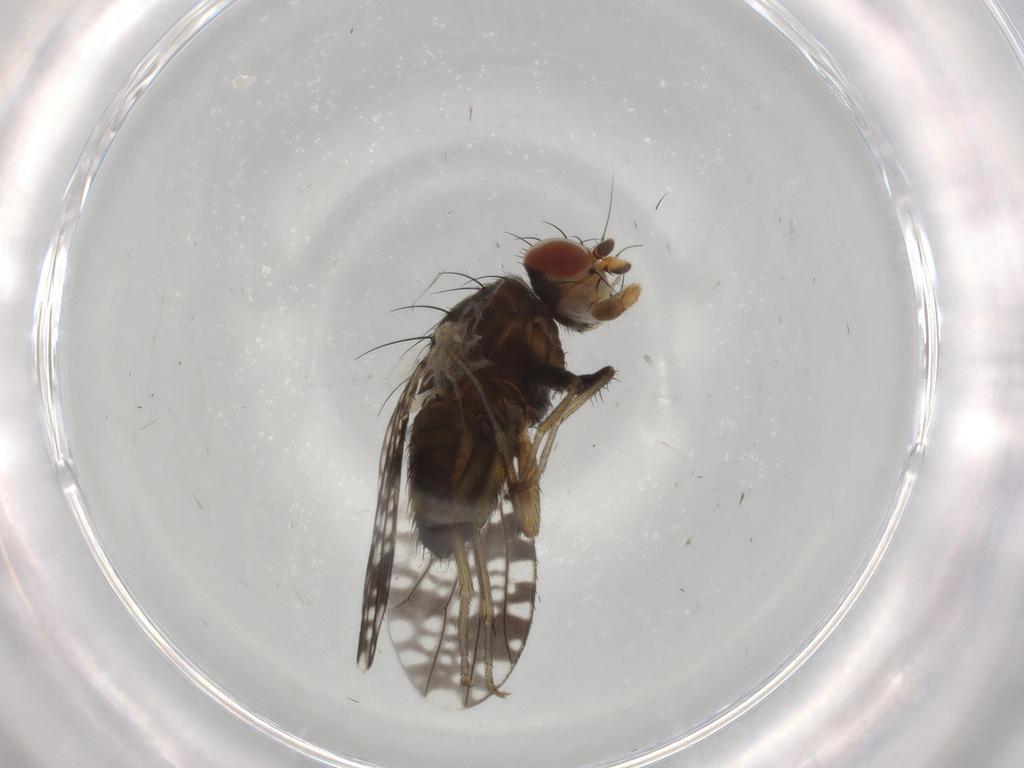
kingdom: Animalia
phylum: Arthropoda
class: Insecta
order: Diptera
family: Tephritidae
